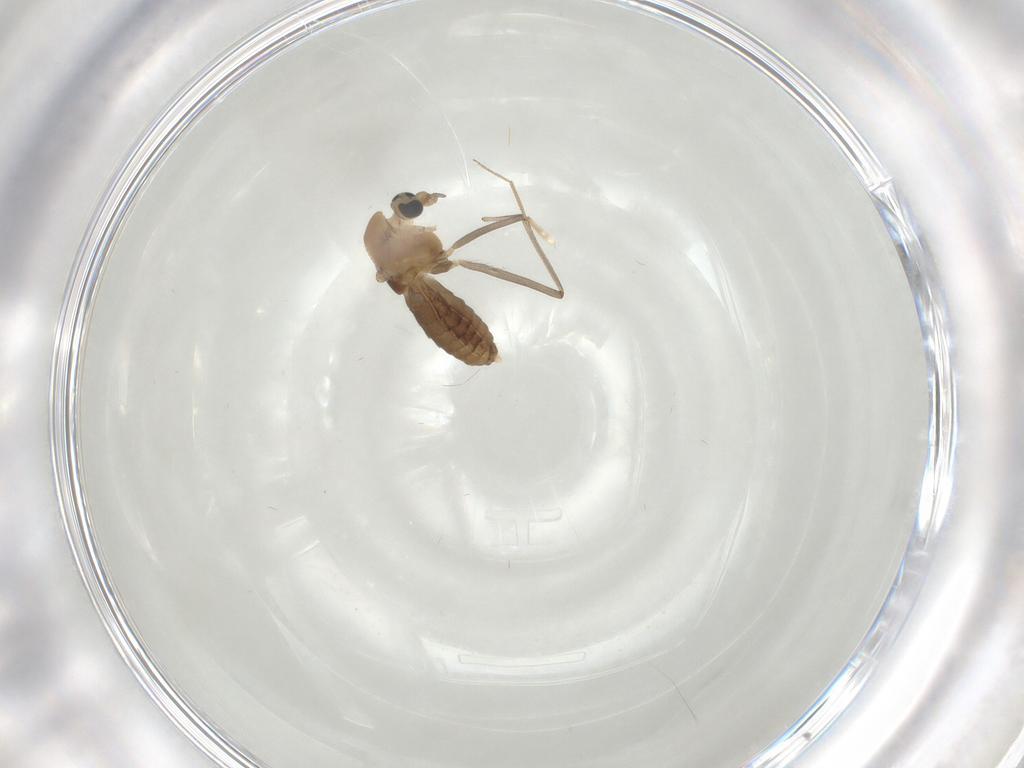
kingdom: Animalia
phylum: Arthropoda
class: Insecta
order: Diptera
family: Chironomidae
